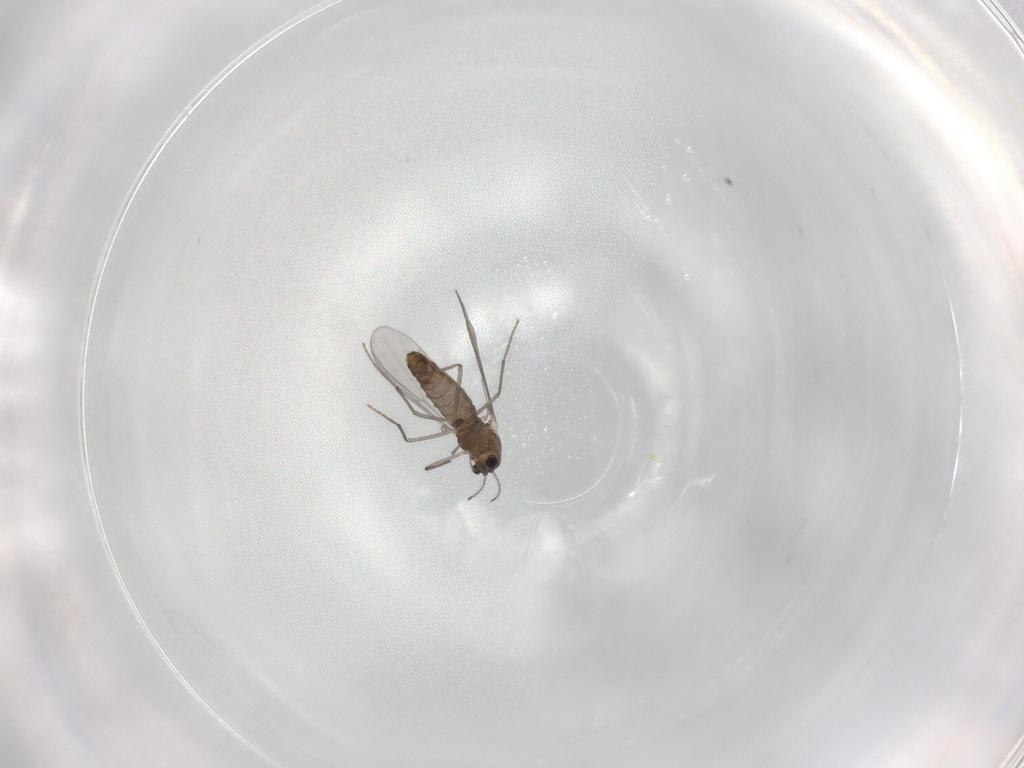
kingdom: Animalia
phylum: Arthropoda
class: Insecta
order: Diptera
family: Chironomidae
